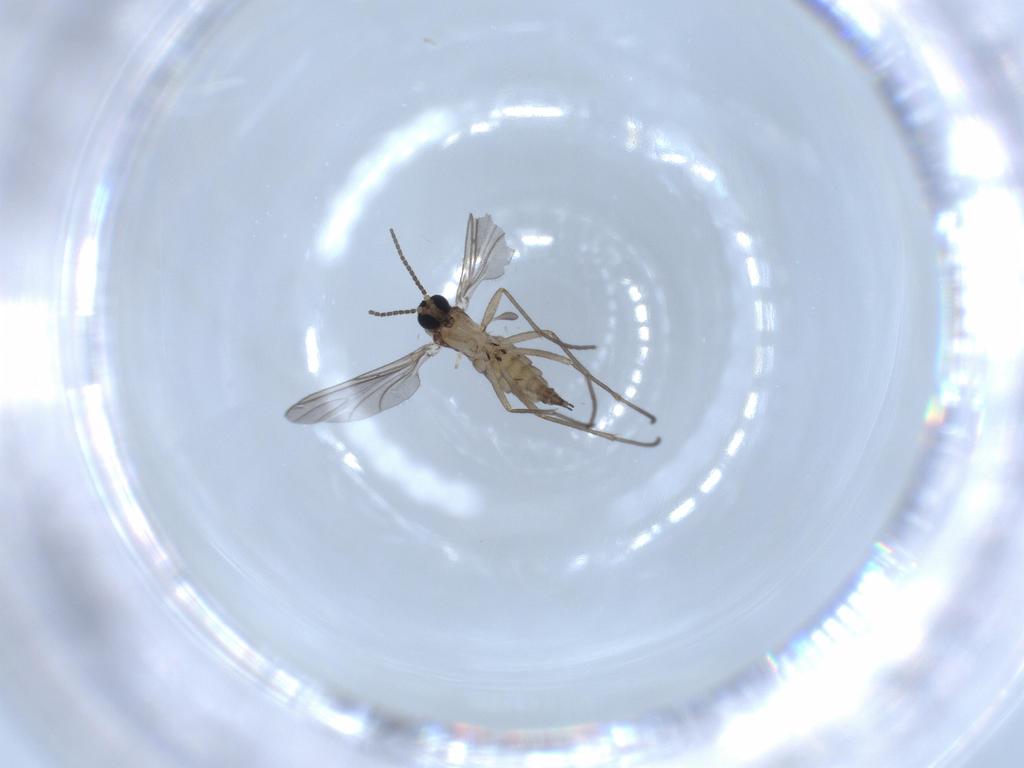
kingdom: Animalia
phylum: Arthropoda
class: Insecta
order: Diptera
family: Sciaridae
